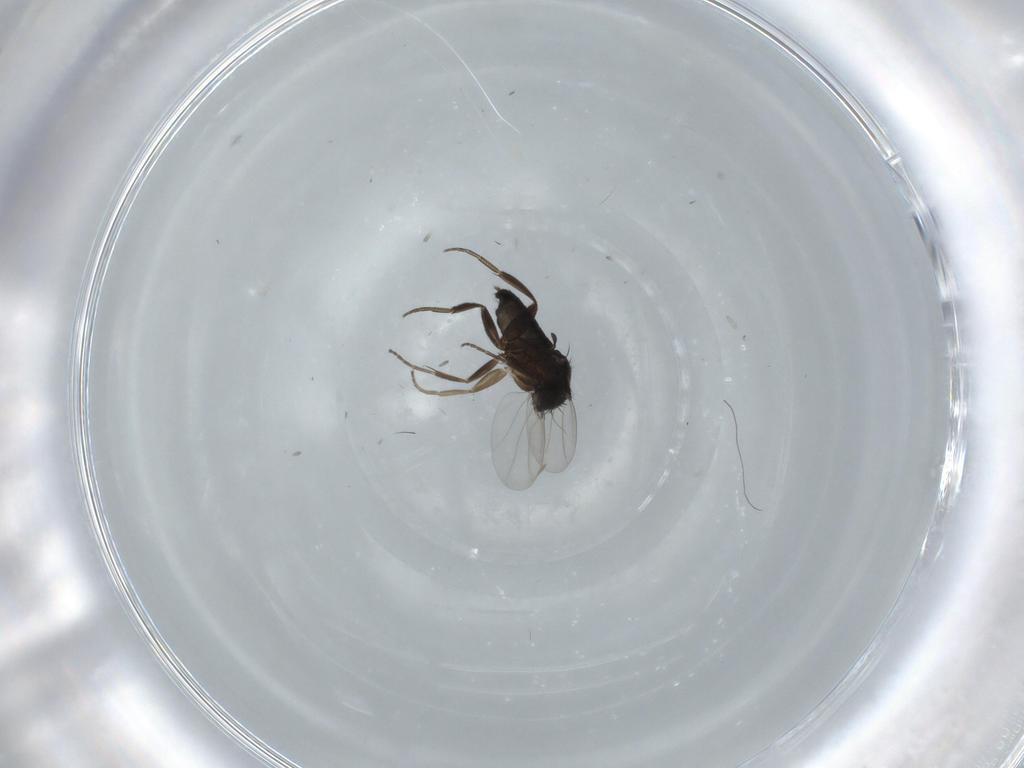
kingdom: Animalia
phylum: Arthropoda
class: Insecta
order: Diptera
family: Phoridae
